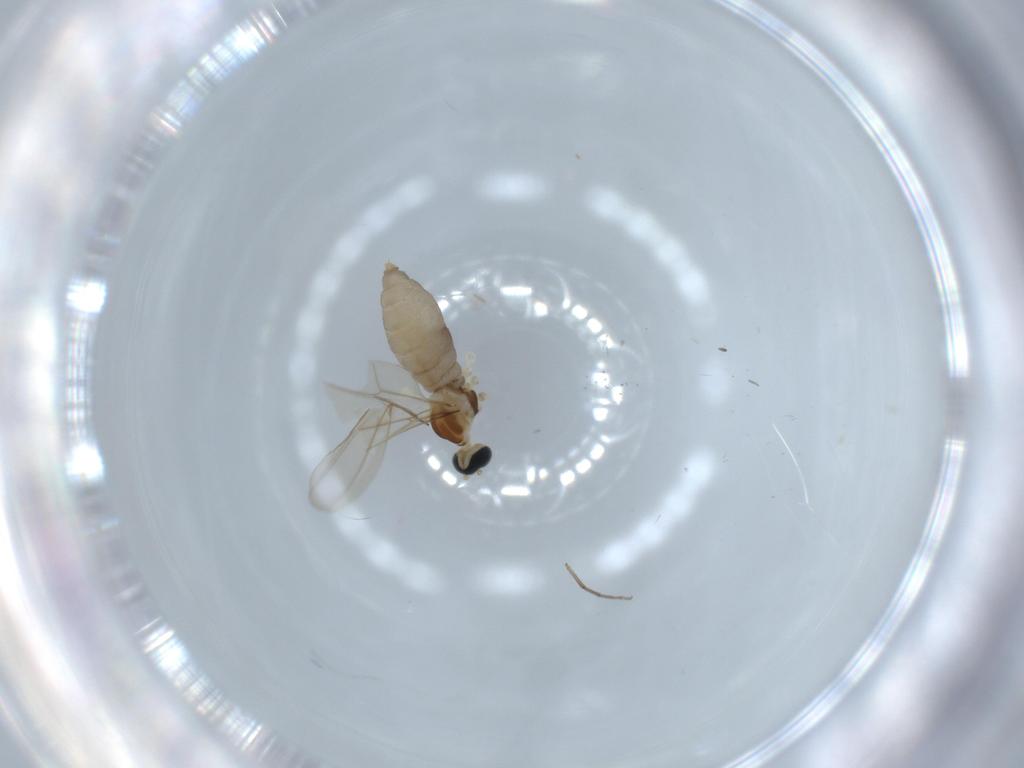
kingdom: Animalia
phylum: Arthropoda
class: Insecta
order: Diptera
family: Cecidomyiidae
